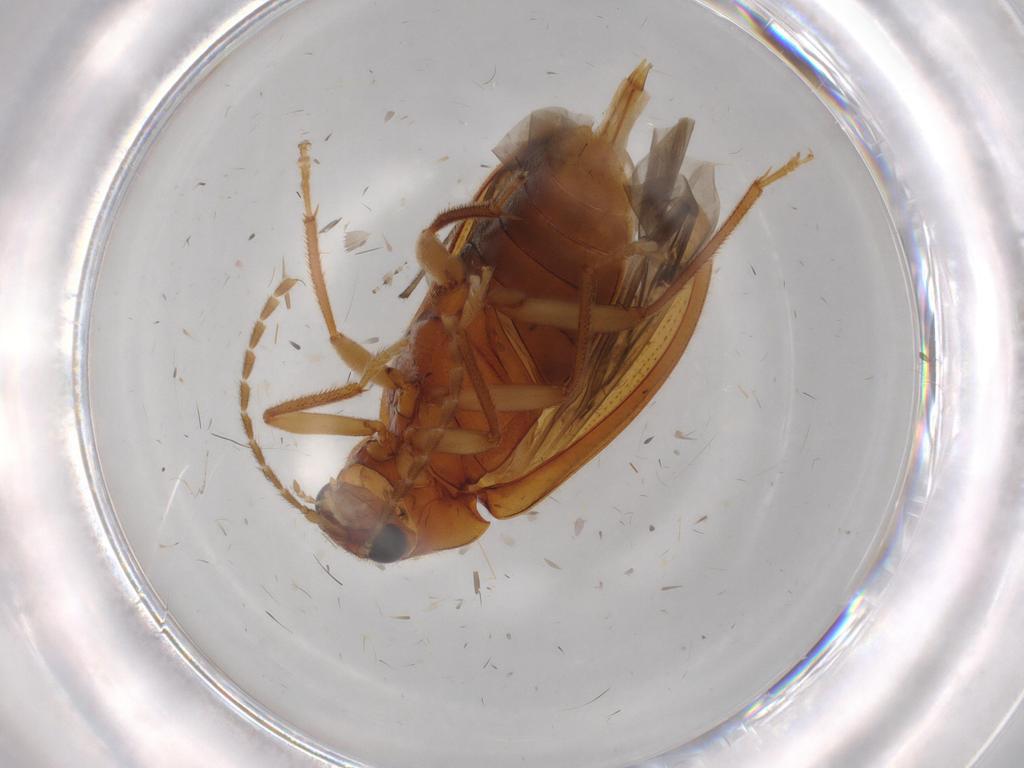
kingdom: Animalia
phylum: Arthropoda
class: Insecta
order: Coleoptera
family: Ptilodactylidae
